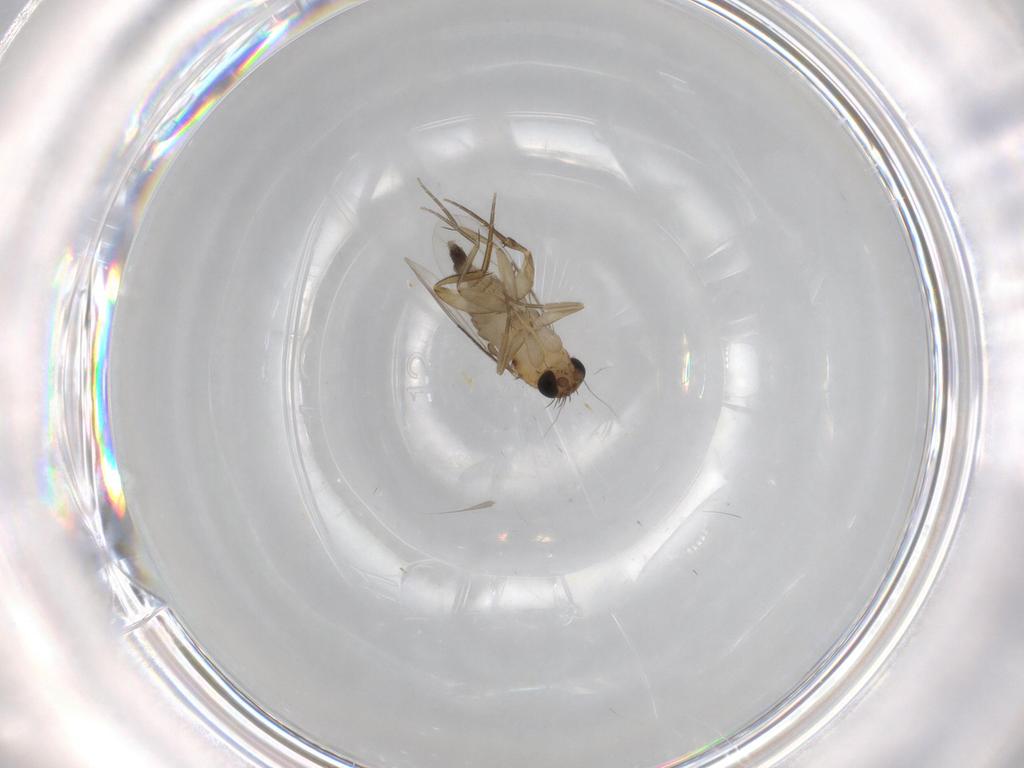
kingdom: Animalia
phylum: Arthropoda
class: Insecta
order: Diptera
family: Phoridae
